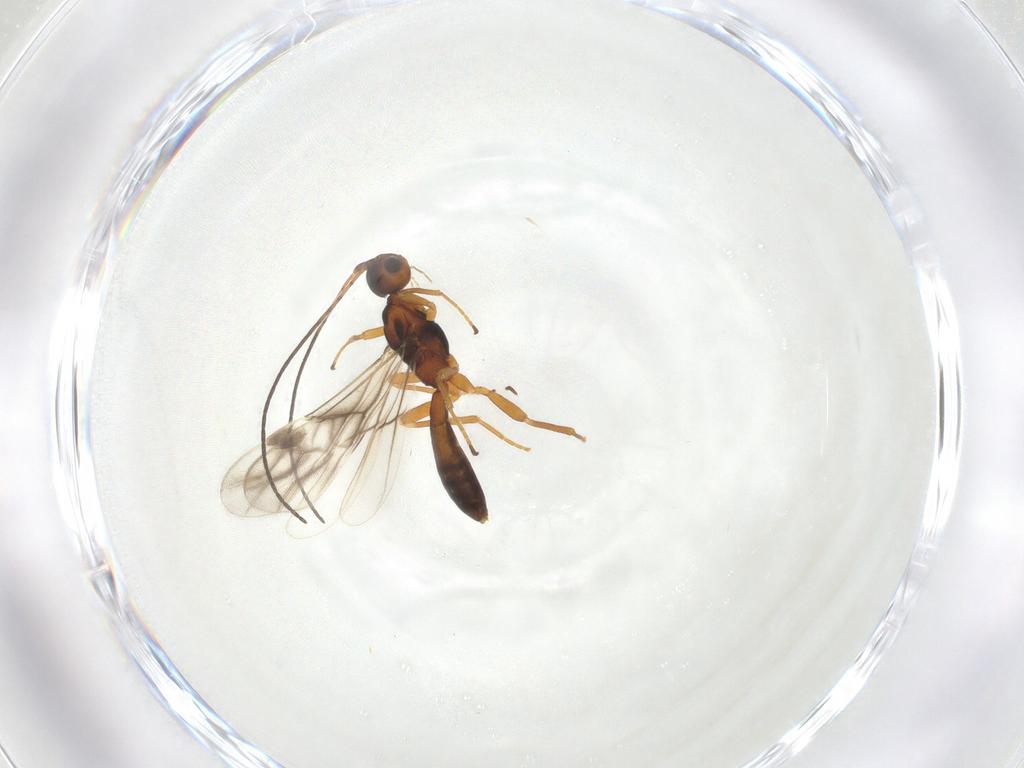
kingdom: Animalia
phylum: Arthropoda
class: Insecta
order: Hymenoptera
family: Braconidae
